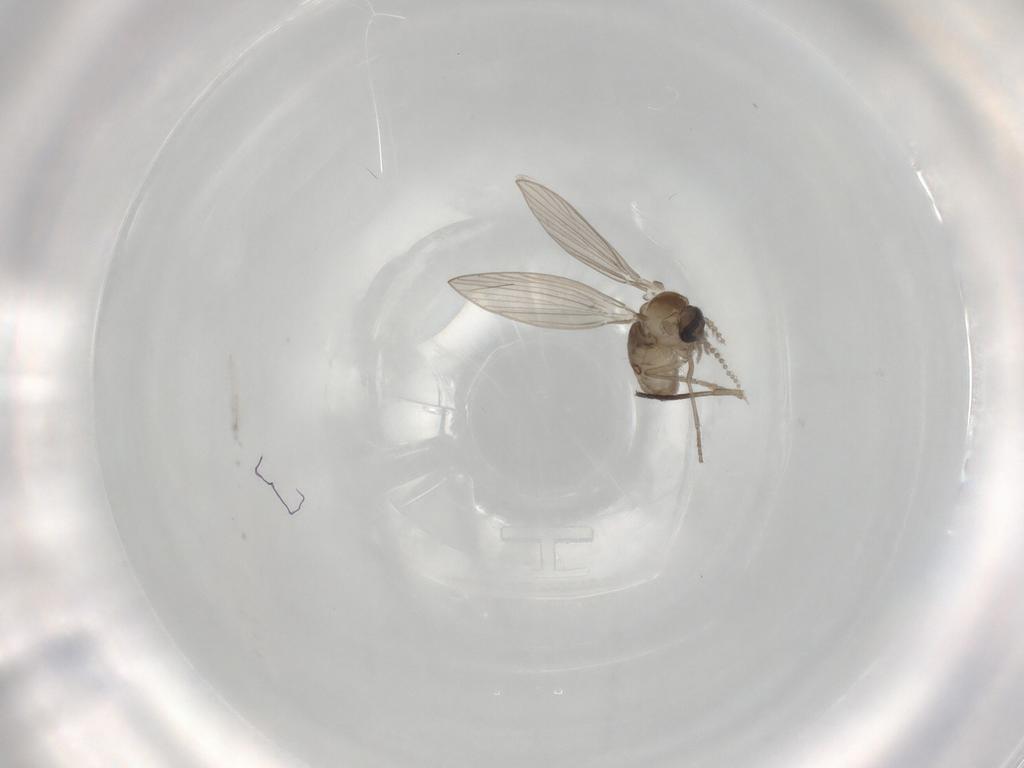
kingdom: Animalia
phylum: Arthropoda
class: Insecta
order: Diptera
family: Psychodidae
